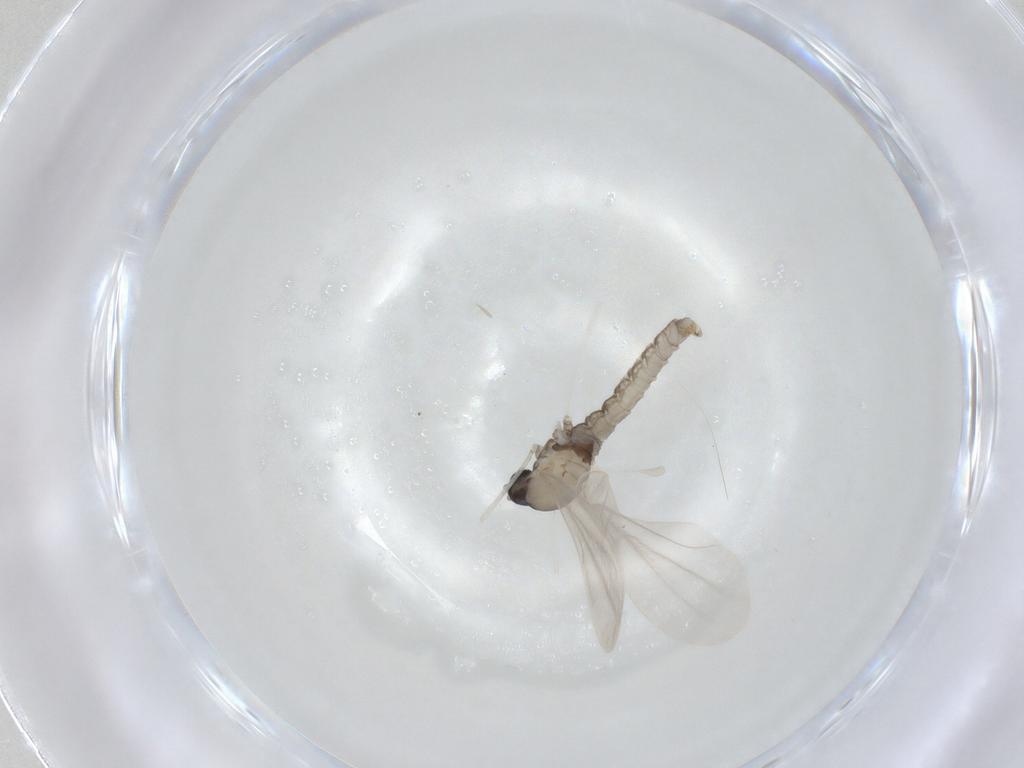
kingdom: Animalia
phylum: Arthropoda
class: Insecta
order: Diptera
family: Cecidomyiidae
